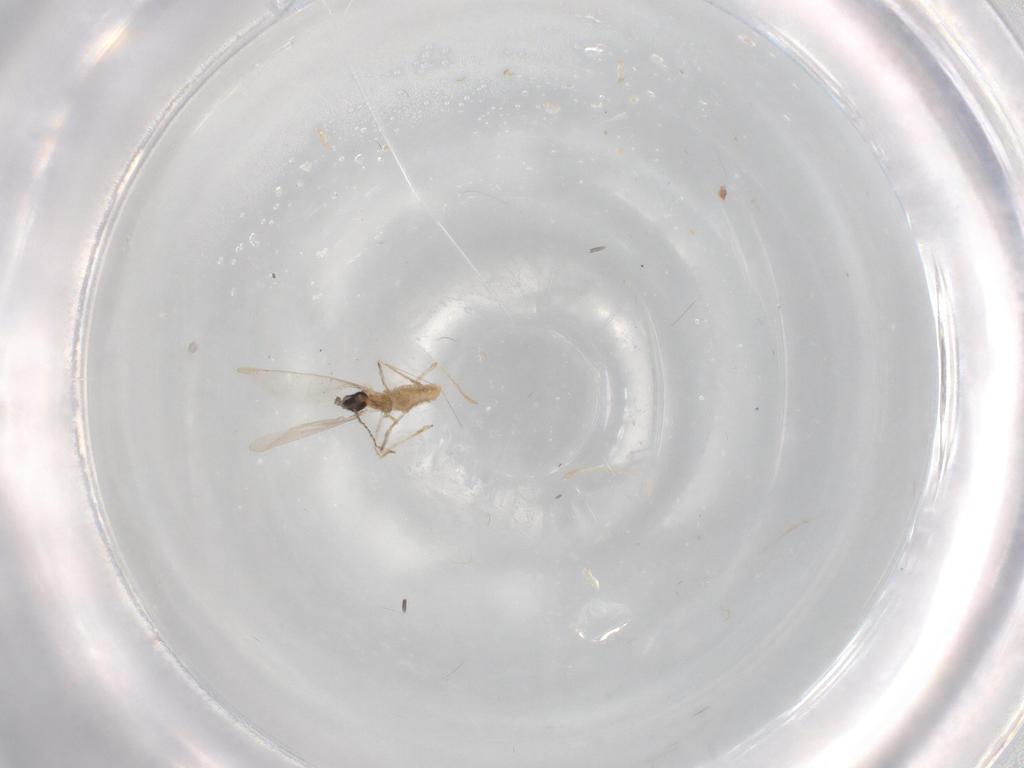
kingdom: Animalia
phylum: Arthropoda
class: Insecta
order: Diptera
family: Cecidomyiidae
